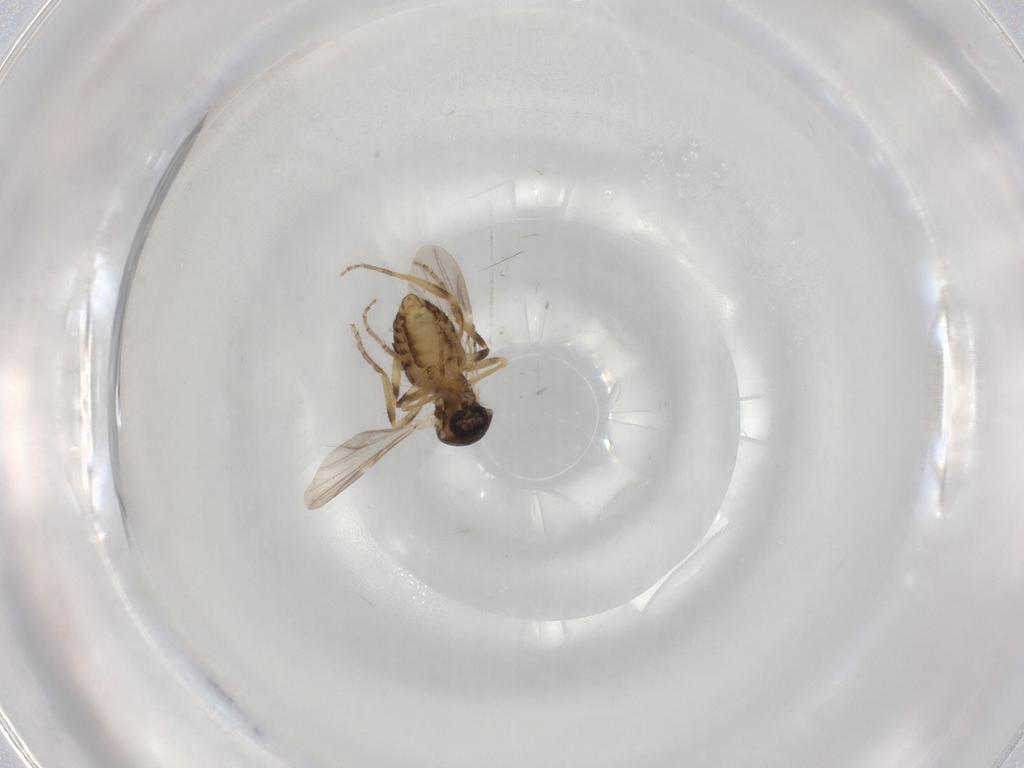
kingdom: Animalia
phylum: Arthropoda
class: Insecta
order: Diptera
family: Ceratopogonidae
